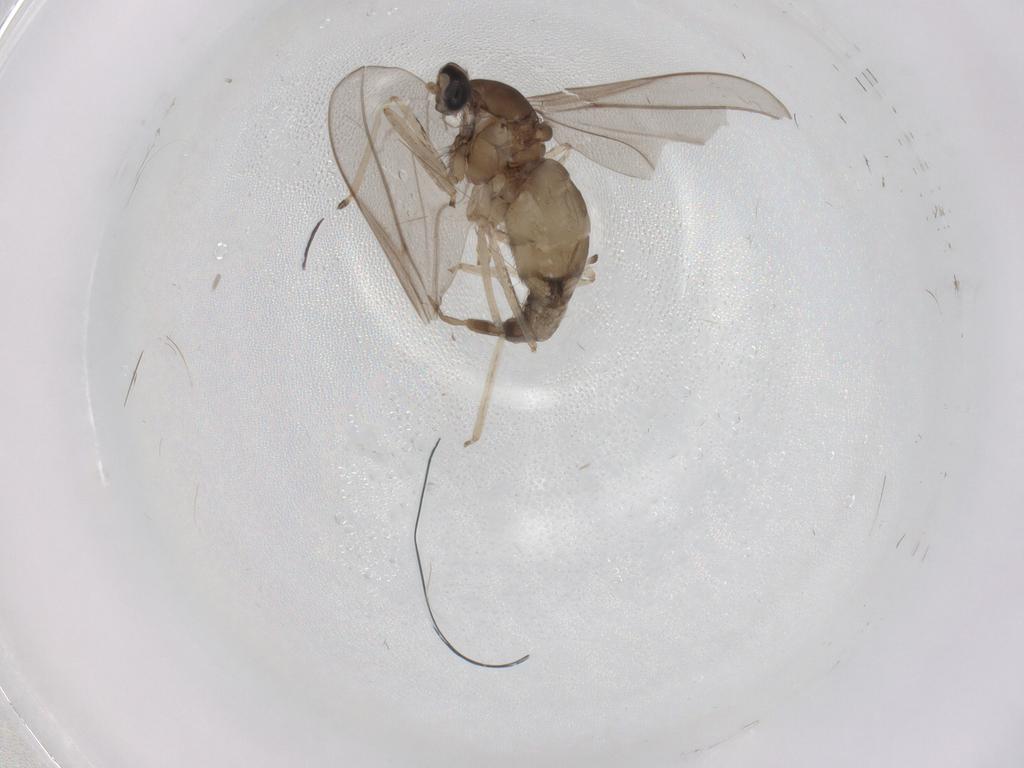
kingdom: Animalia
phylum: Arthropoda
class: Insecta
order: Diptera
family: Cecidomyiidae
